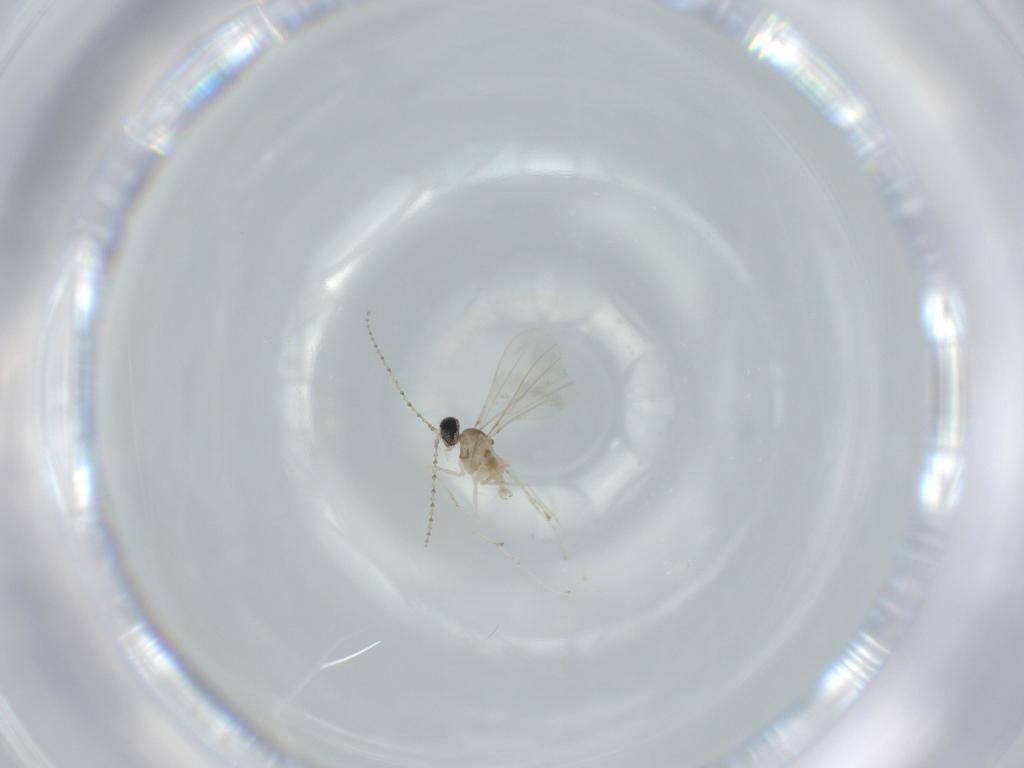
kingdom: Animalia
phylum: Arthropoda
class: Insecta
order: Diptera
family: Cecidomyiidae
